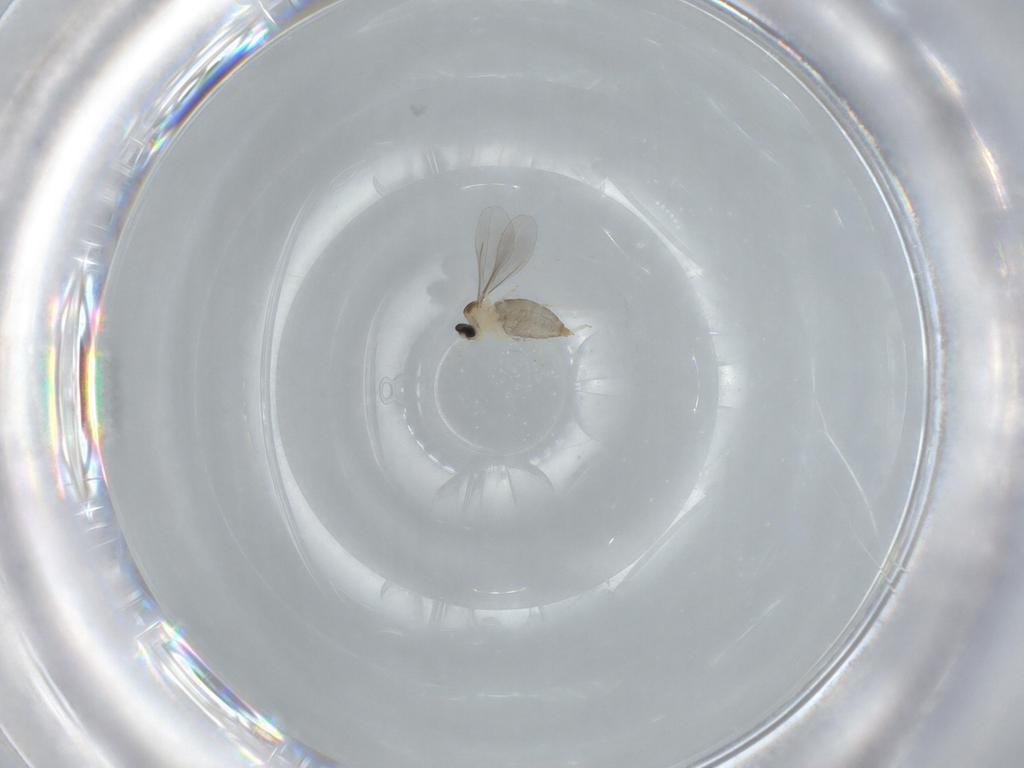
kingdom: Animalia
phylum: Arthropoda
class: Insecta
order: Diptera
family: Cecidomyiidae
